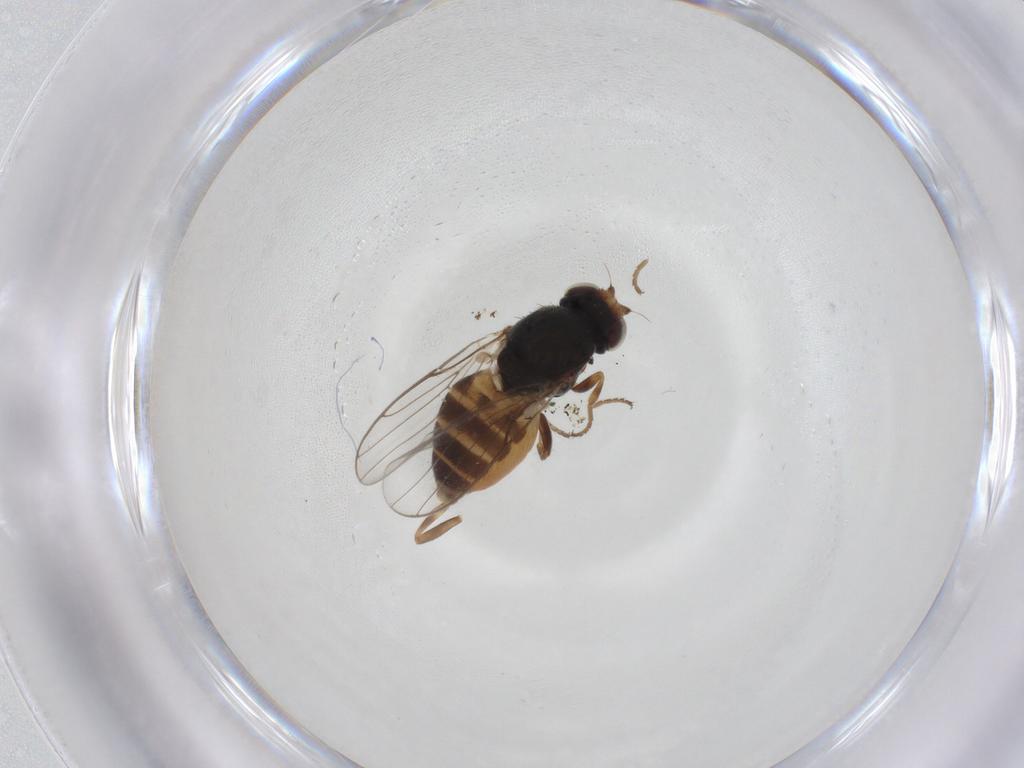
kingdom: Animalia
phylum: Arthropoda
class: Insecta
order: Diptera
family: Chloropidae
